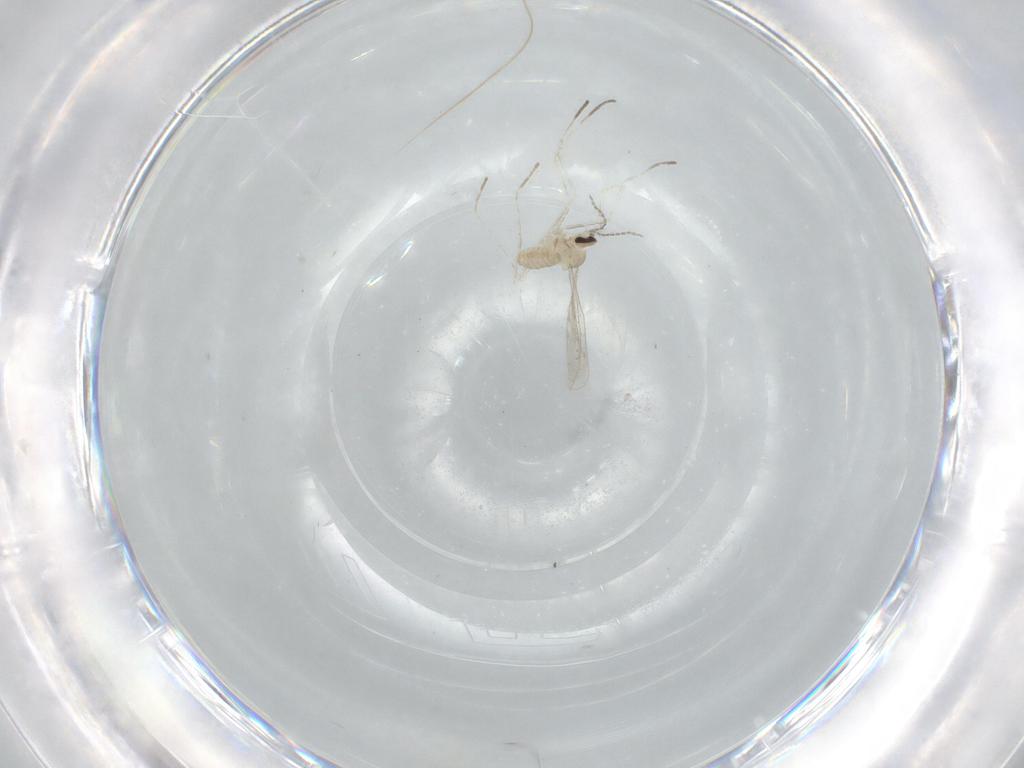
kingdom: Animalia
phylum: Arthropoda
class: Insecta
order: Diptera
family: Cecidomyiidae
